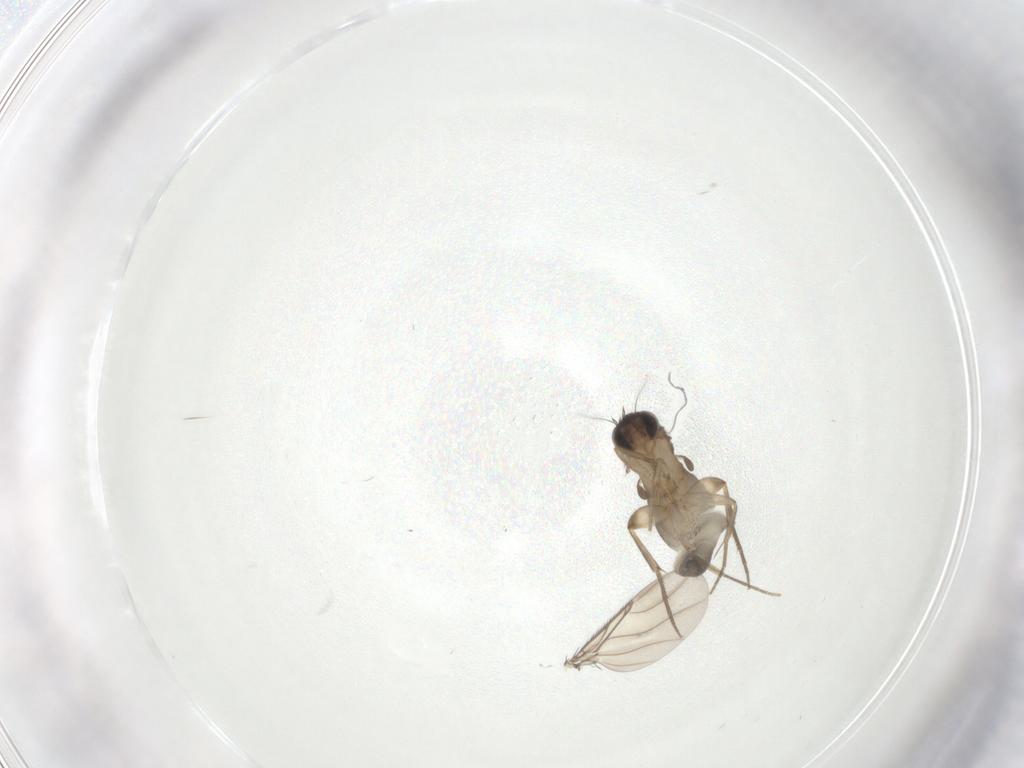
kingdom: Animalia
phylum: Arthropoda
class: Insecta
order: Diptera
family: Phoridae
